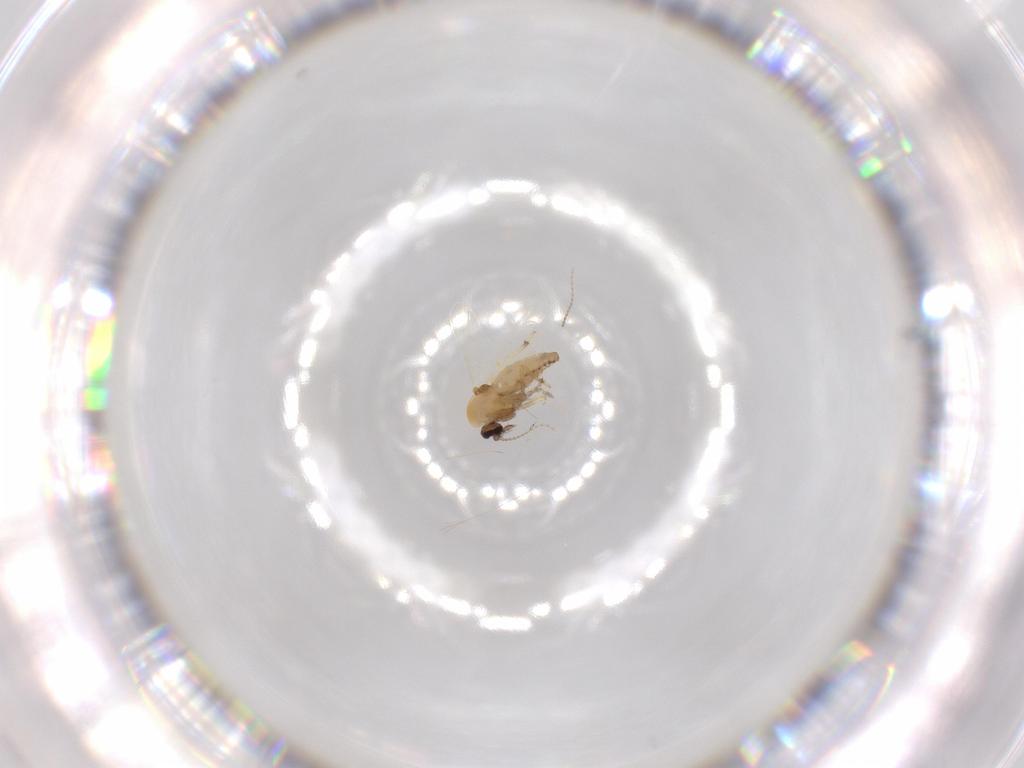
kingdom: Animalia
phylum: Arthropoda
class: Insecta
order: Diptera
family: Ceratopogonidae
